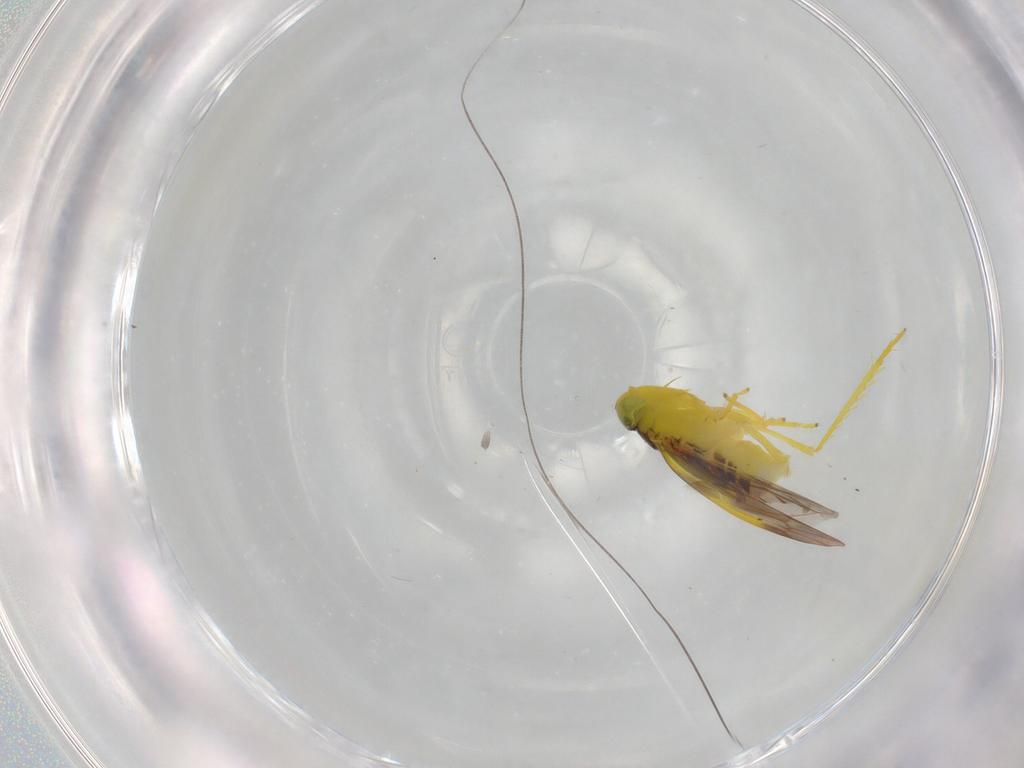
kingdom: Animalia
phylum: Arthropoda
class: Insecta
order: Hemiptera
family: Cicadellidae
